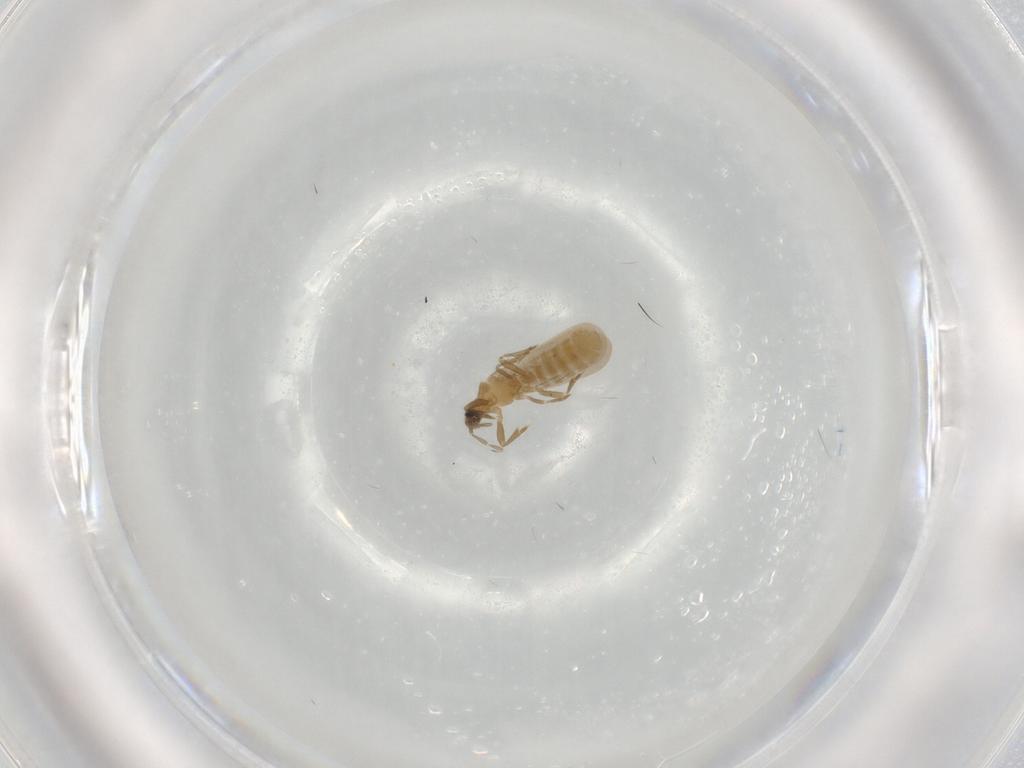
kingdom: Animalia
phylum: Arthropoda
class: Insecta
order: Hemiptera
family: Enicocephalidae
